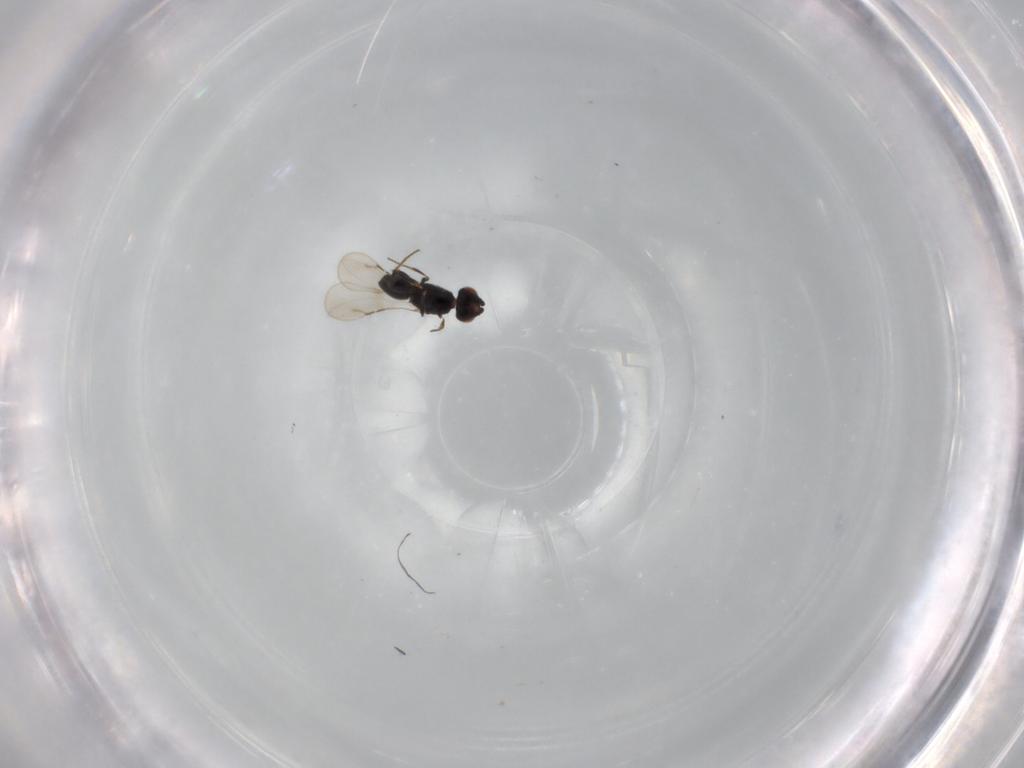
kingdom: Animalia
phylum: Arthropoda
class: Insecta
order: Hymenoptera
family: Ceraphronidae
